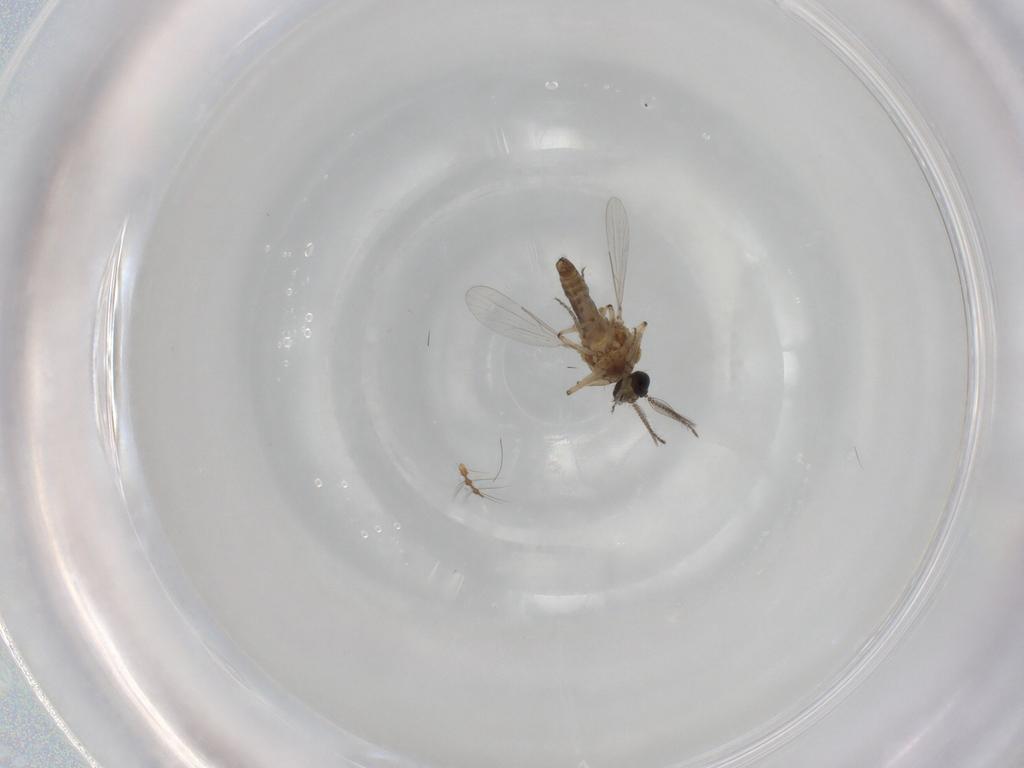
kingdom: Animalia
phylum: Arthropoda
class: Insecta
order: Diptera
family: Ceratopogonidae
